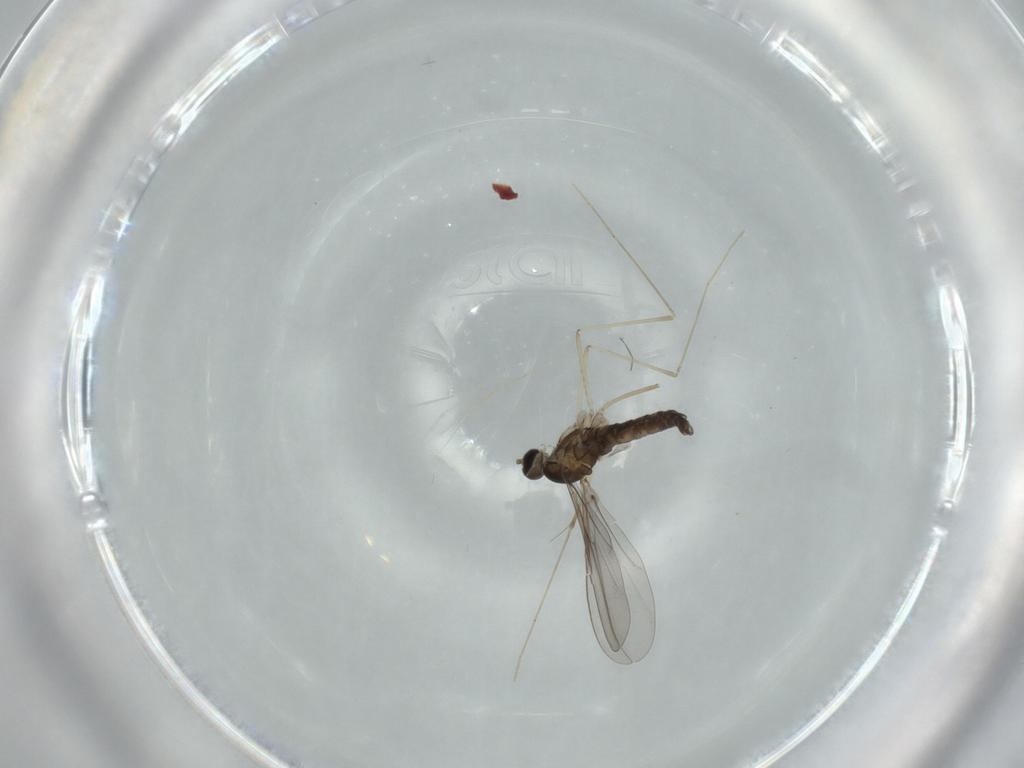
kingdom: Animalia
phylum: Arthropoda
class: Insecta
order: Diptera
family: Cecidomyiidae
